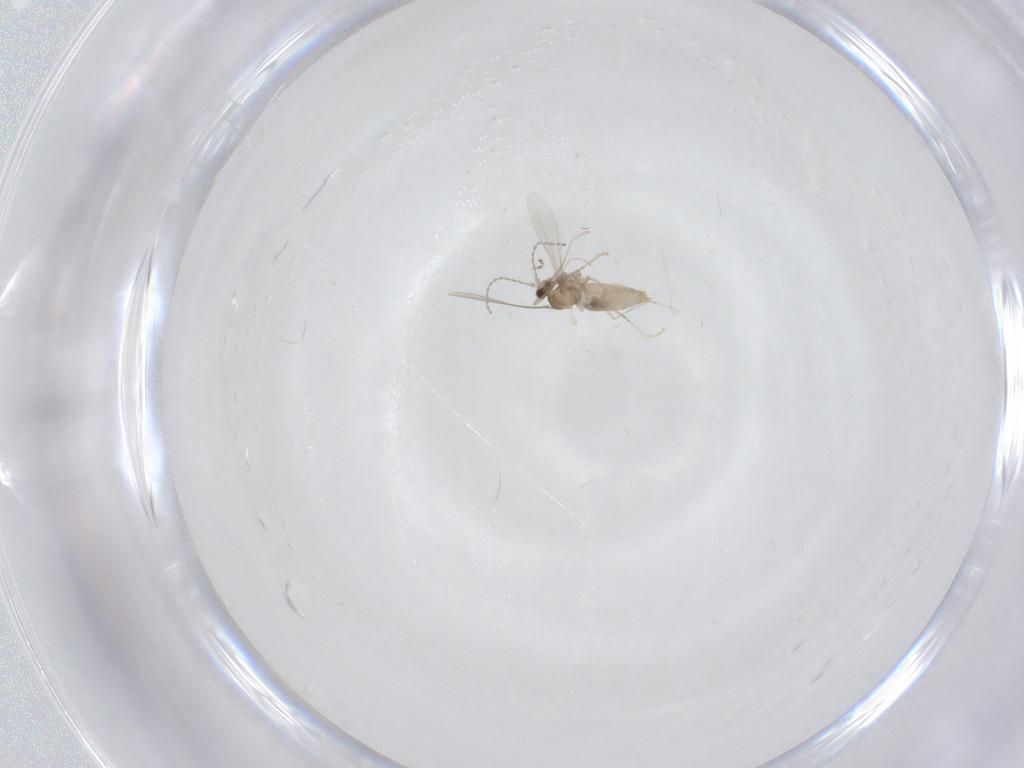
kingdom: Animalia
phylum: Arthropoda
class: Insecta
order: Diptera
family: Cecidomyiidae
